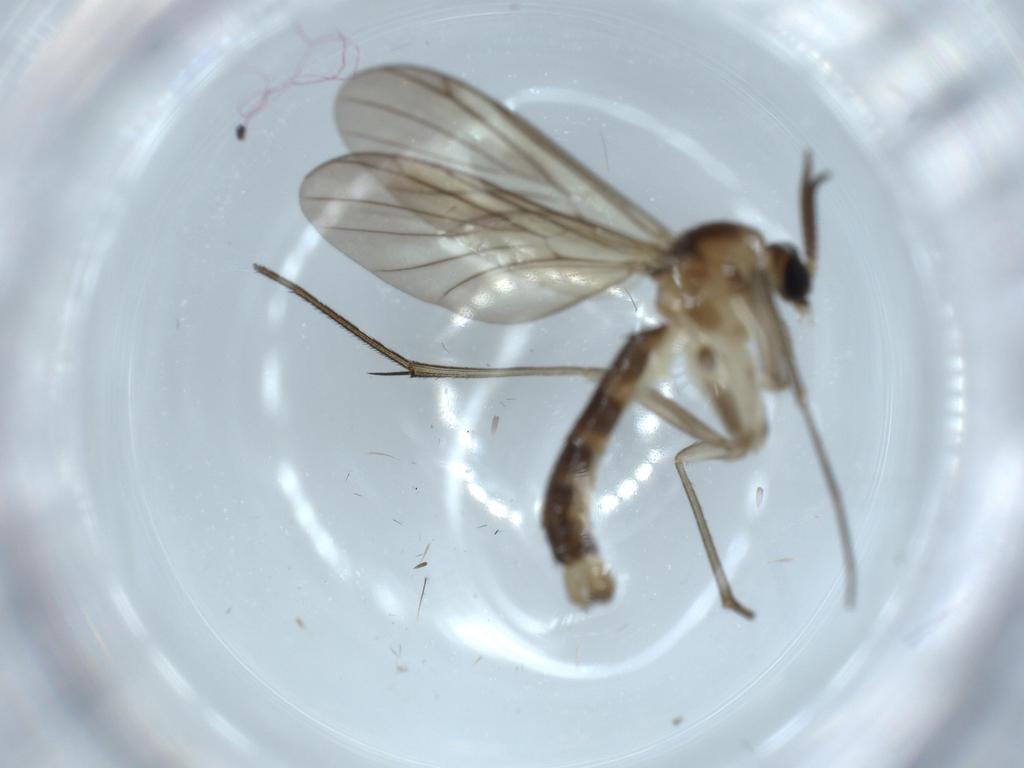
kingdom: Animalia
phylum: Arthropoda
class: Insecta
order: Diptera
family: Mycetophilidae
